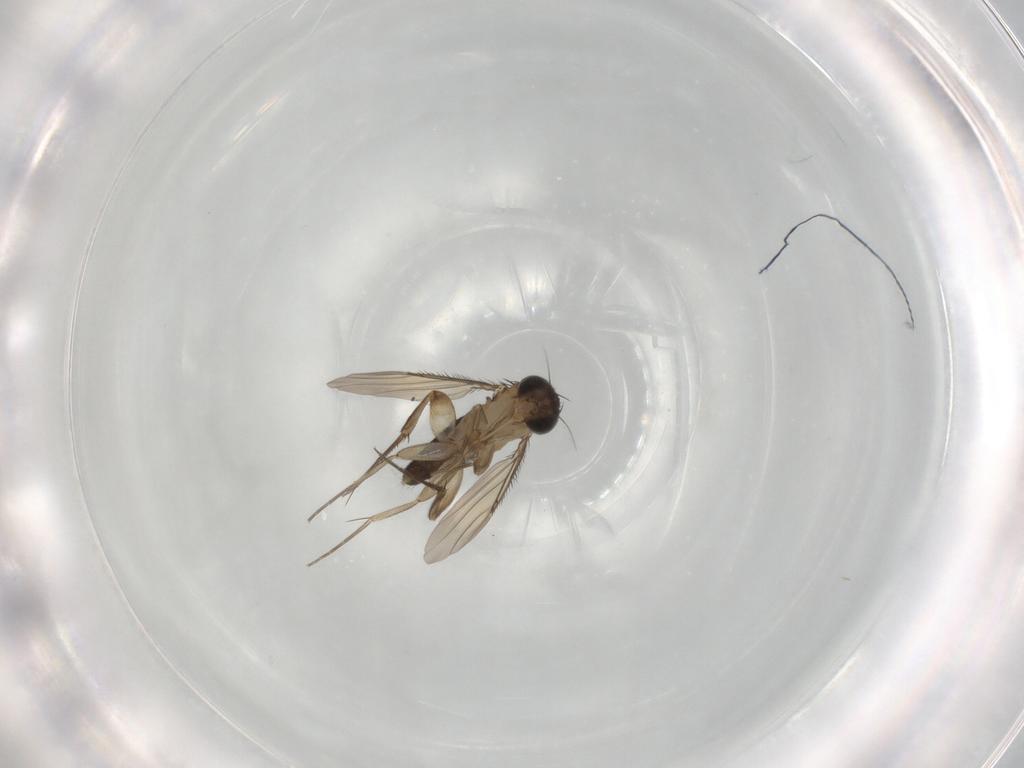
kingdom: Animalia
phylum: Arthropoda
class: Insecta
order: Diptera
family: Phoridae
